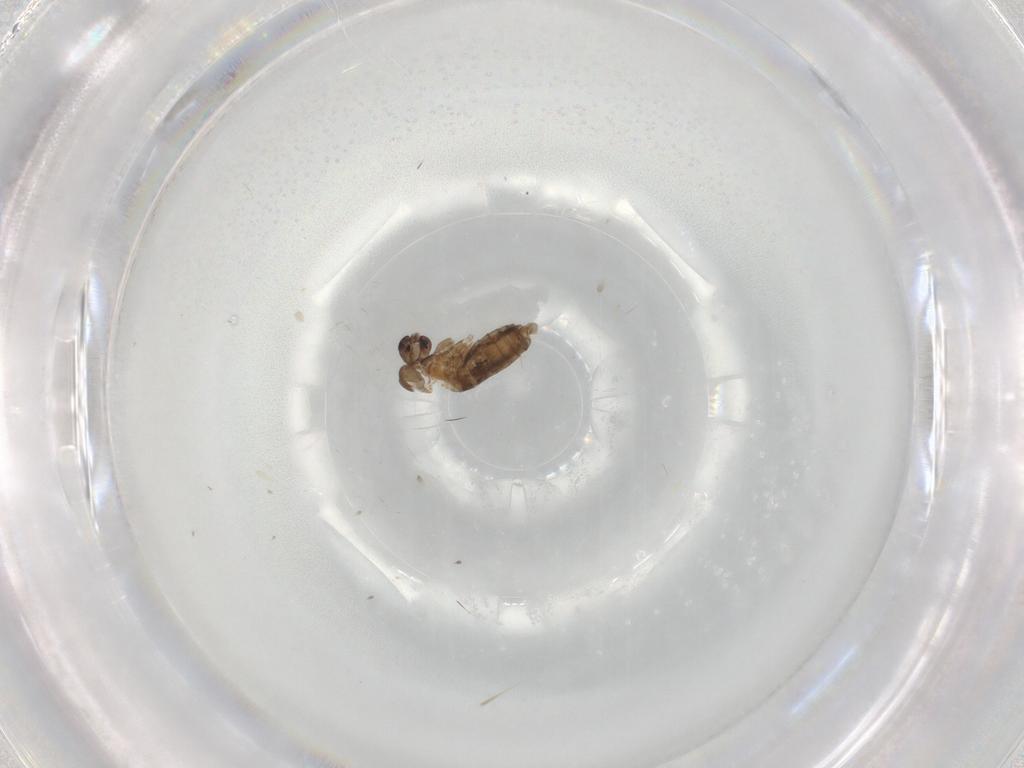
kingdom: Animalia
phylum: Arthropoda
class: Insecta
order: Diptera
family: Cecidomyiidae
